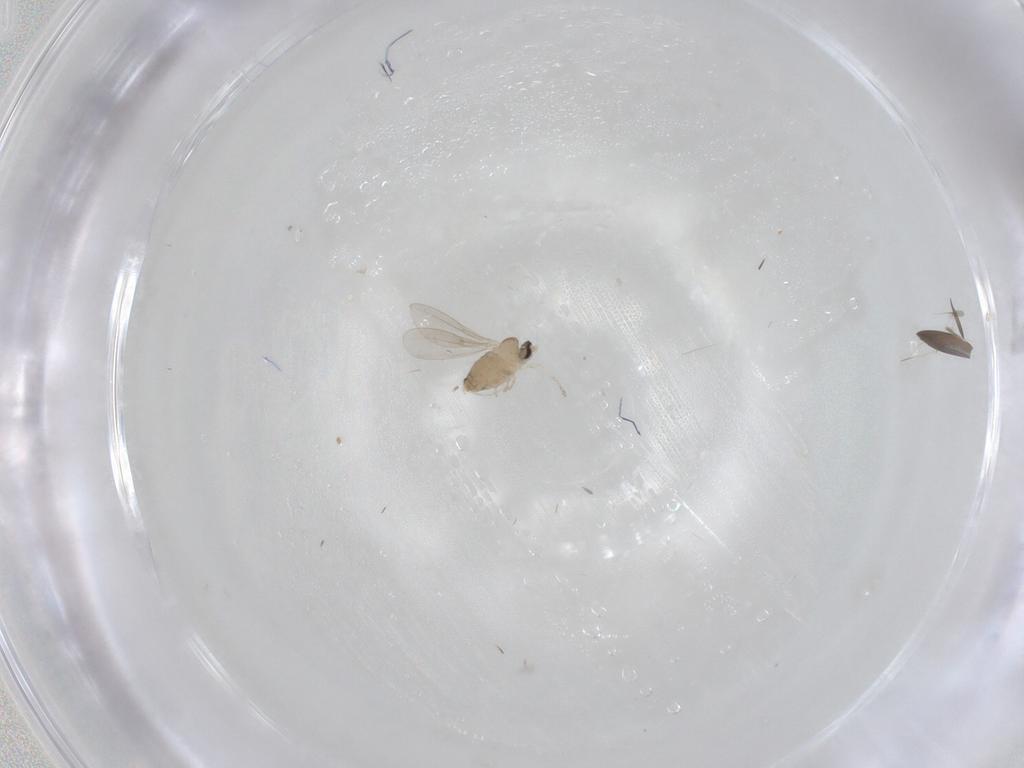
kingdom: Animalia
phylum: Arthropoda
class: Insecta
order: Diptera
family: Cecidomyiidae
